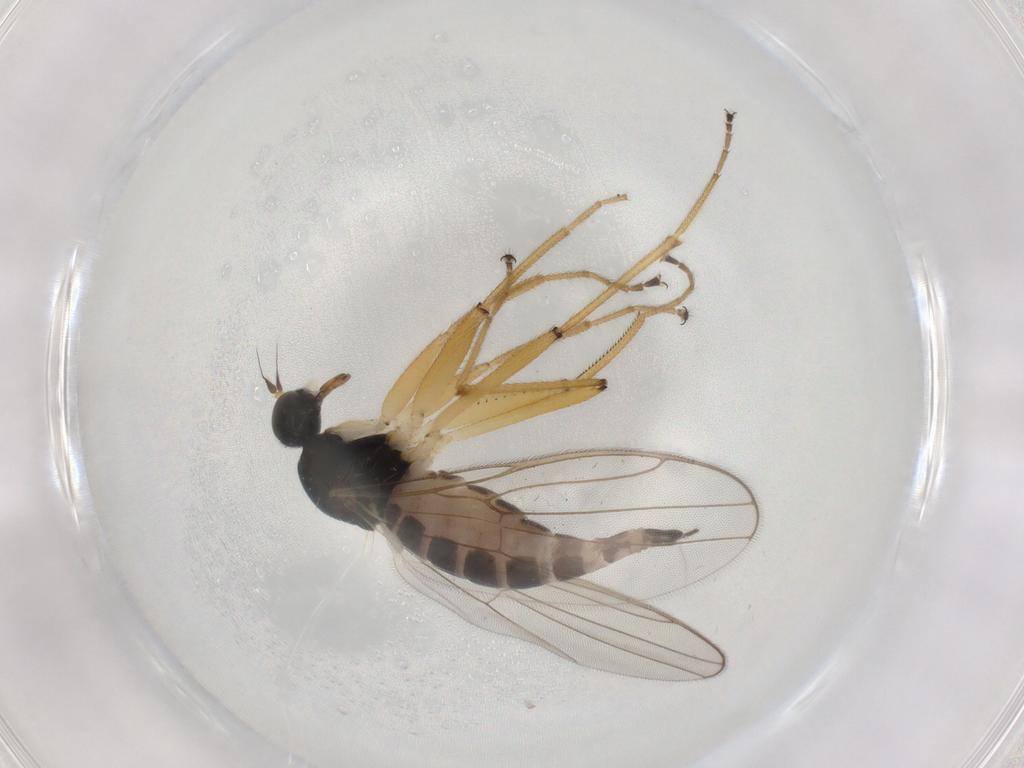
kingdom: Animalia
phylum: Arthropoda
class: Insecta
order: Diptera
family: Hybotidae
